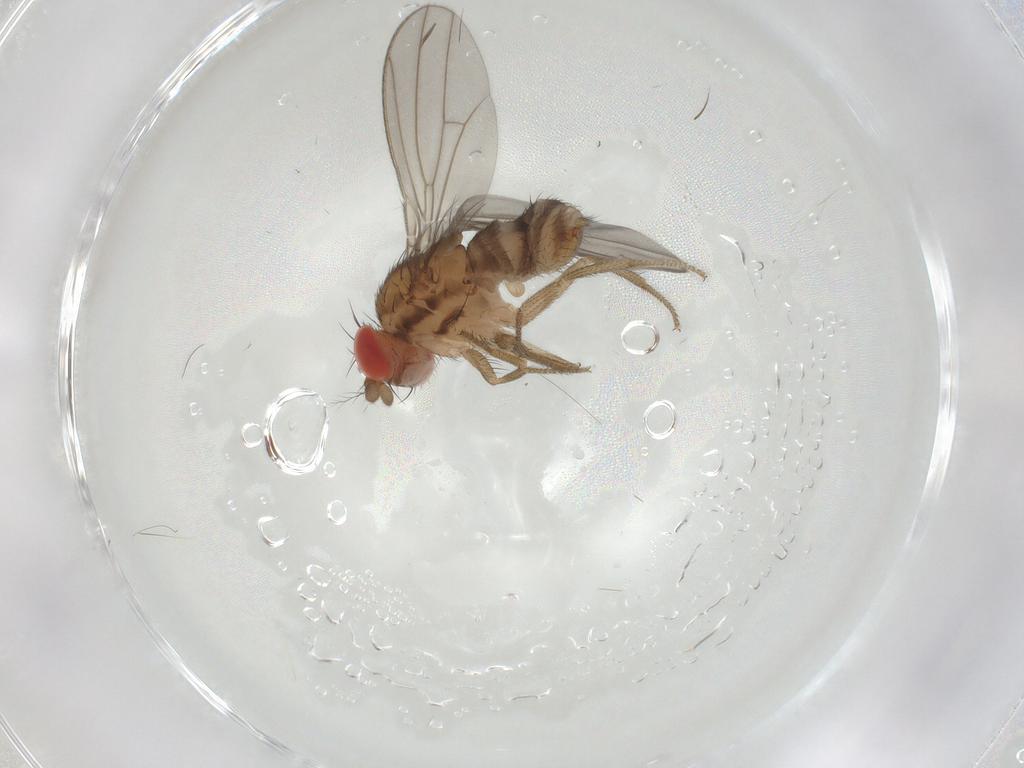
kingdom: Animalia
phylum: Arthropoda
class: Insecta
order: Diptera
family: Drosophilidae
